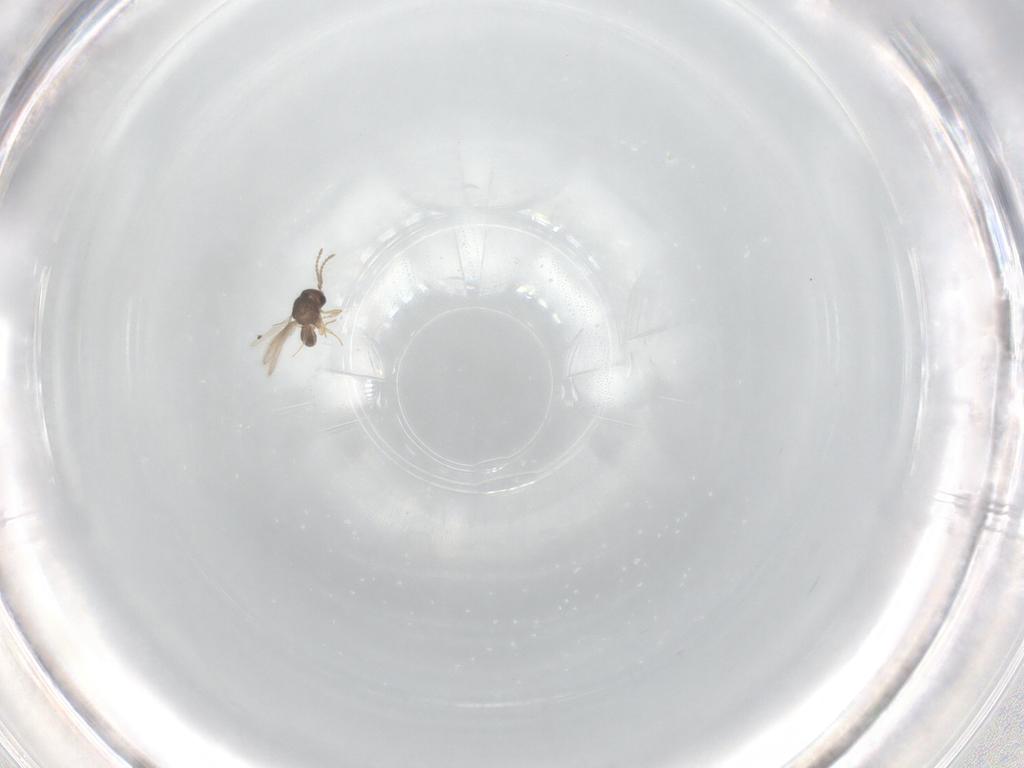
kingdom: Animalia
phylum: Arthropoda
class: Insecta
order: Hymenoptera
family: Scelionidae
